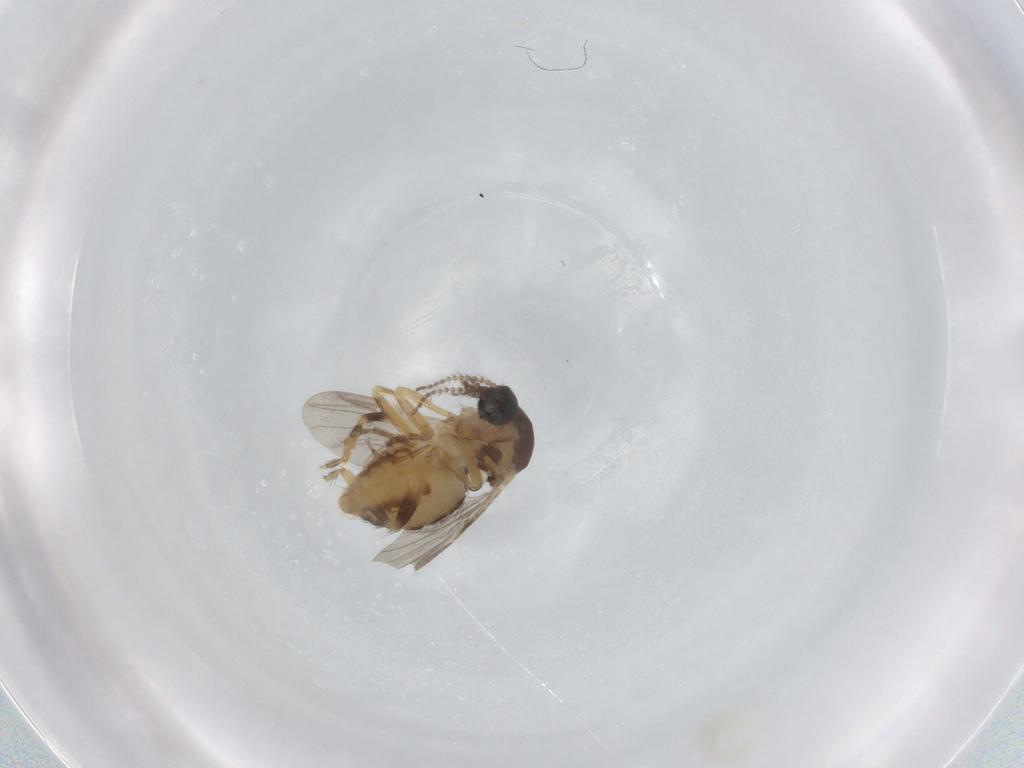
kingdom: Animalia
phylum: Arthropoda
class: Insecta
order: Diptera
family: Ceratopogonidae
